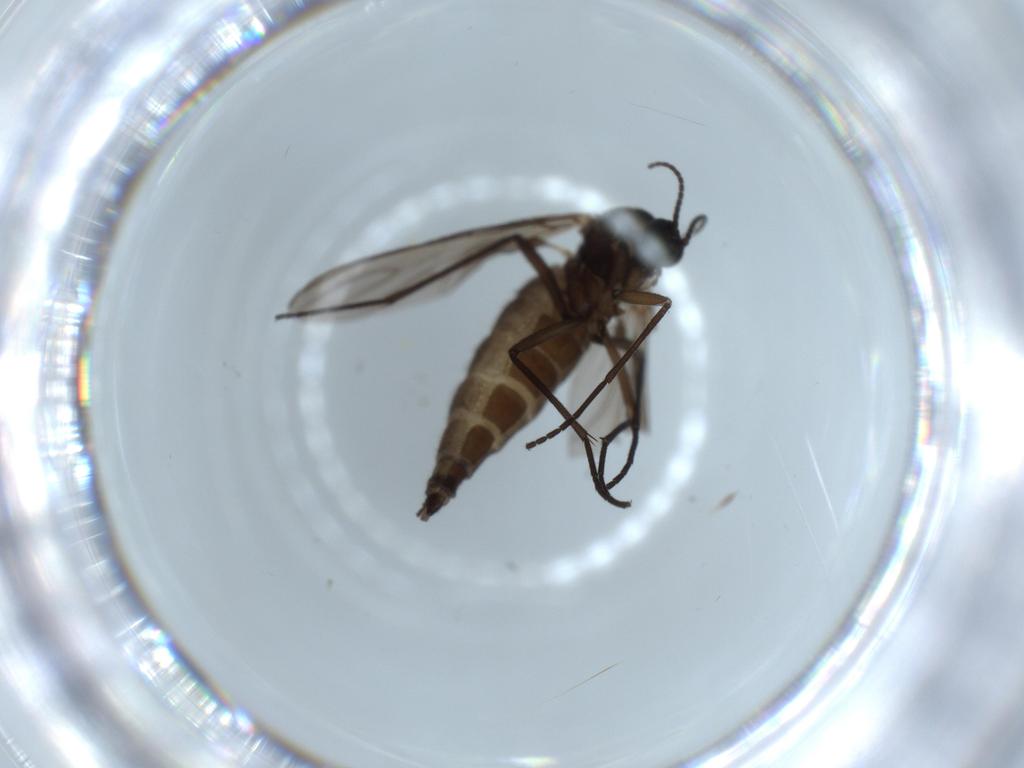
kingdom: Animalia
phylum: Arthropoda
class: Insecta
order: Diptera
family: Sciaridae
